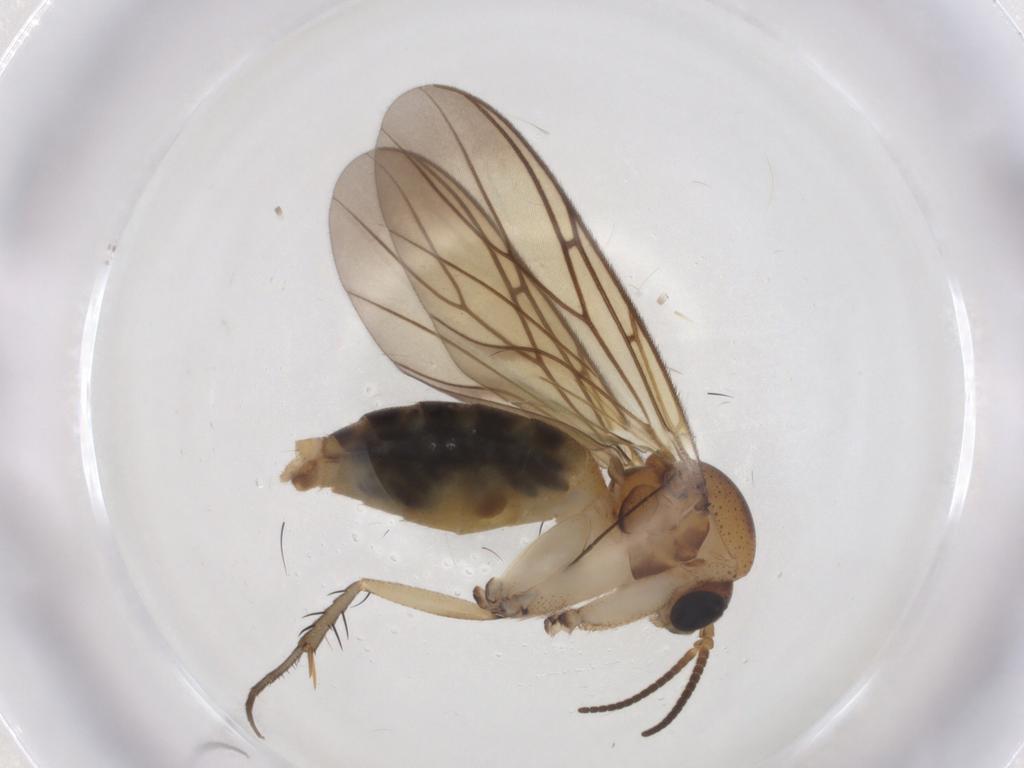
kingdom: Animalia
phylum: Arthropoda
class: Insecta
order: Diptera
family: Mycetophilidae
